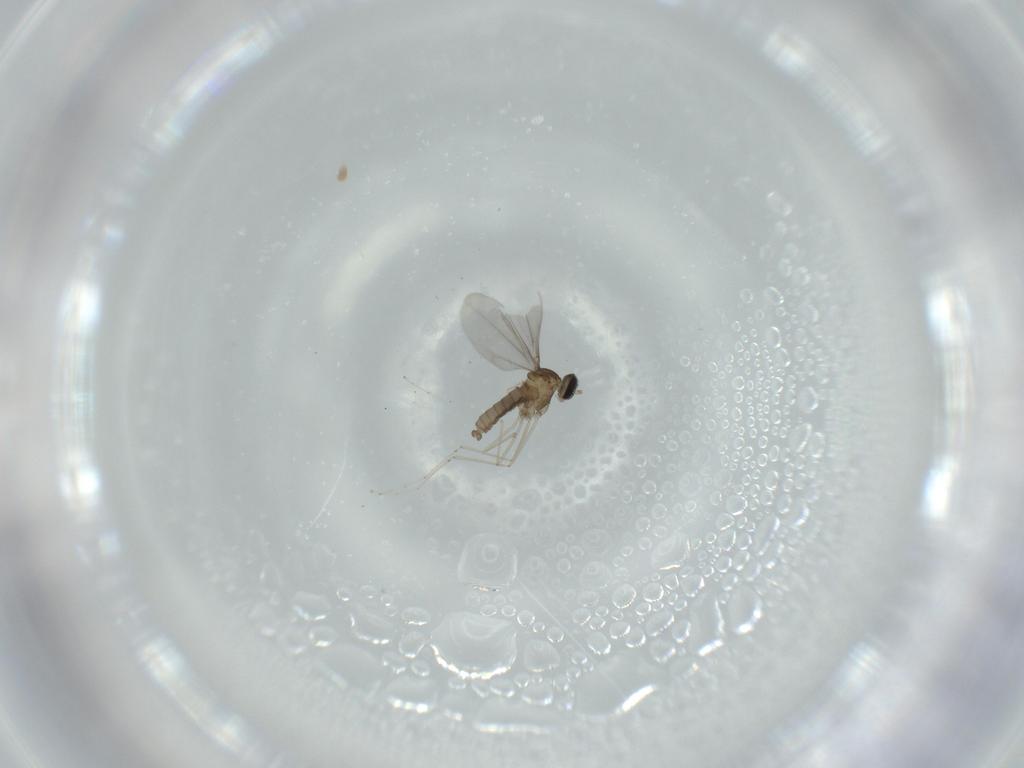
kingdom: Animalia
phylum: Arthropoda
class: Insecta
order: Diptera
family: Cecidomyiidae
